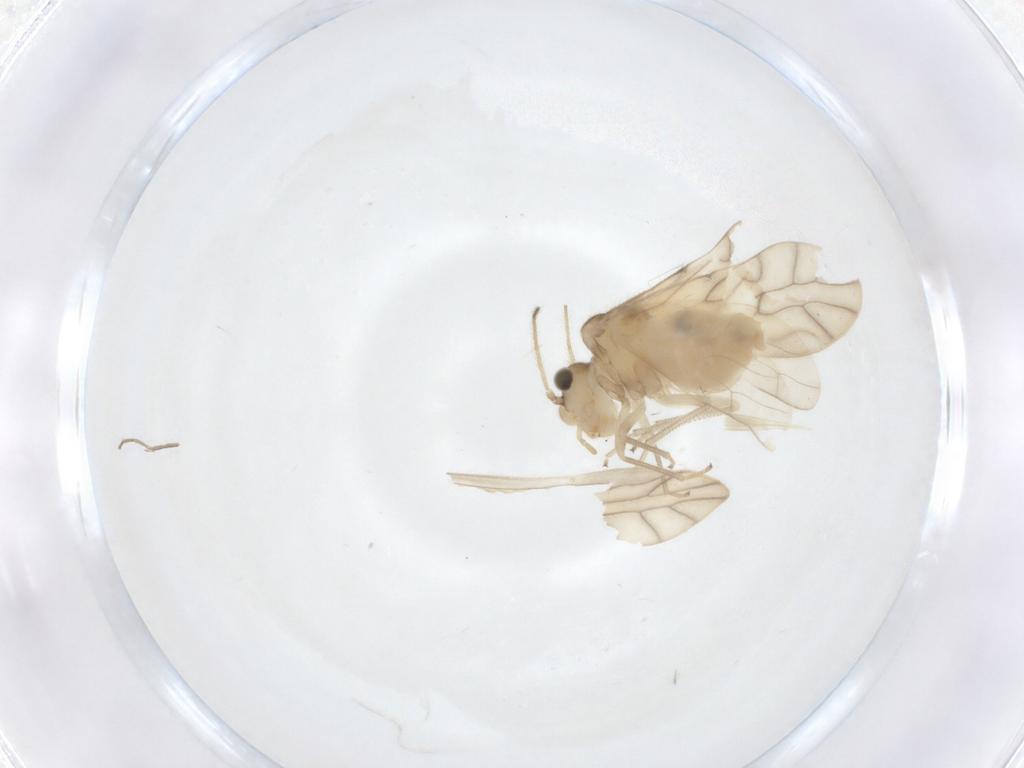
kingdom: Animalia
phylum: Arthropoda
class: Insecta
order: Psocodea
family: Caeciliusidae
